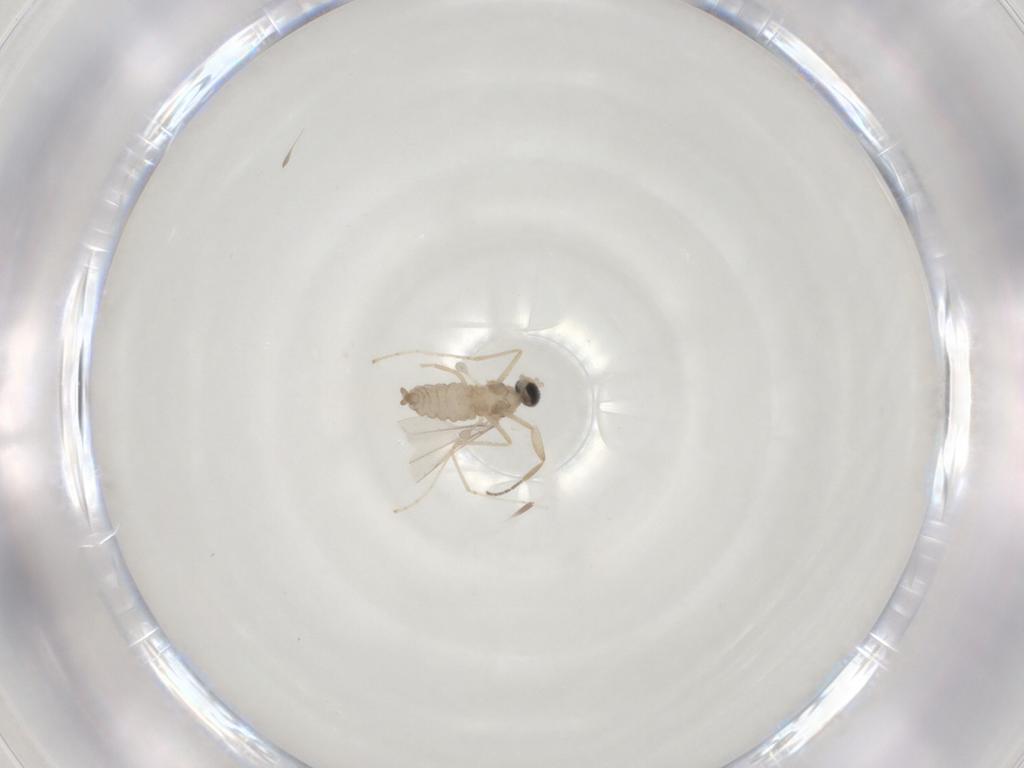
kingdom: Animalia
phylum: Arthropoda
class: Insecta
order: Diptera
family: Cecidomyiidae
